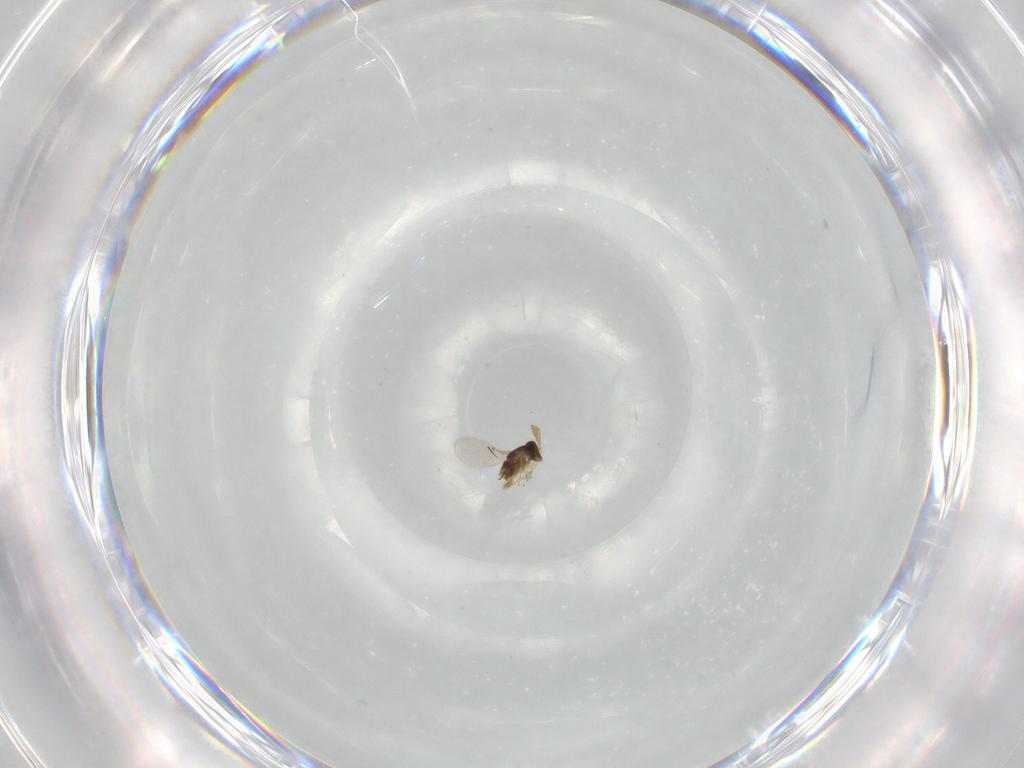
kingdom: Animalia
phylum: Arthropoda
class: Insecta
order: Hymenoptera
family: Encyrtidae
